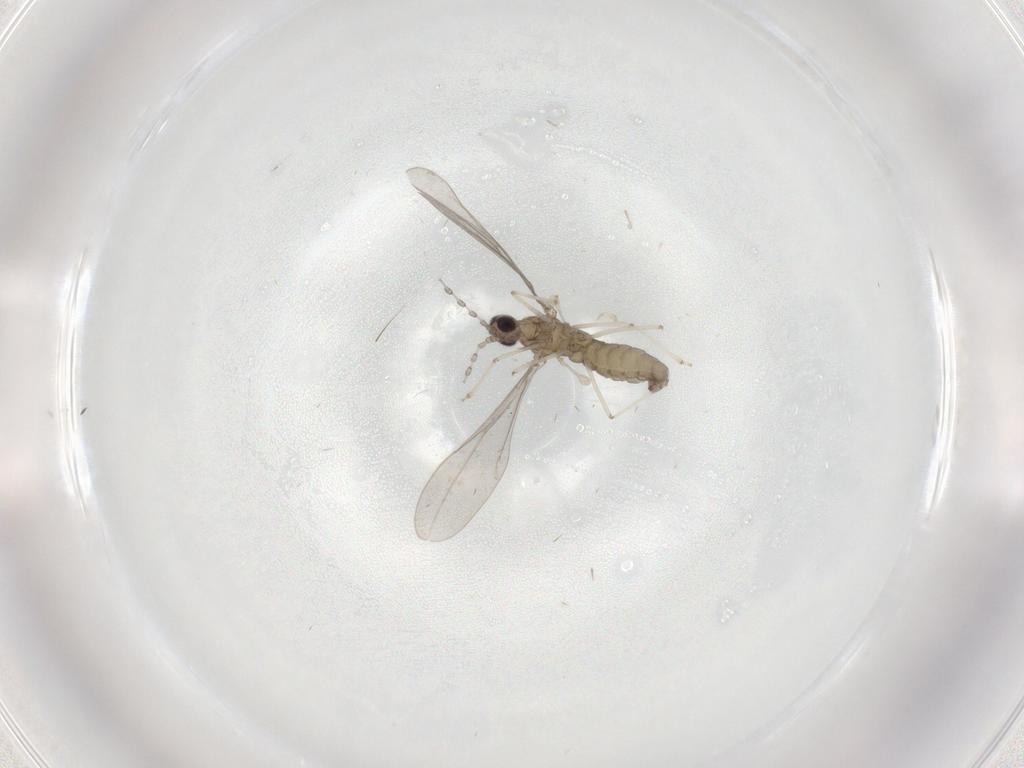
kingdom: Animalia
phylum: Arthropoda
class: Insecta
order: Diptera
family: Cecidomyiidae
